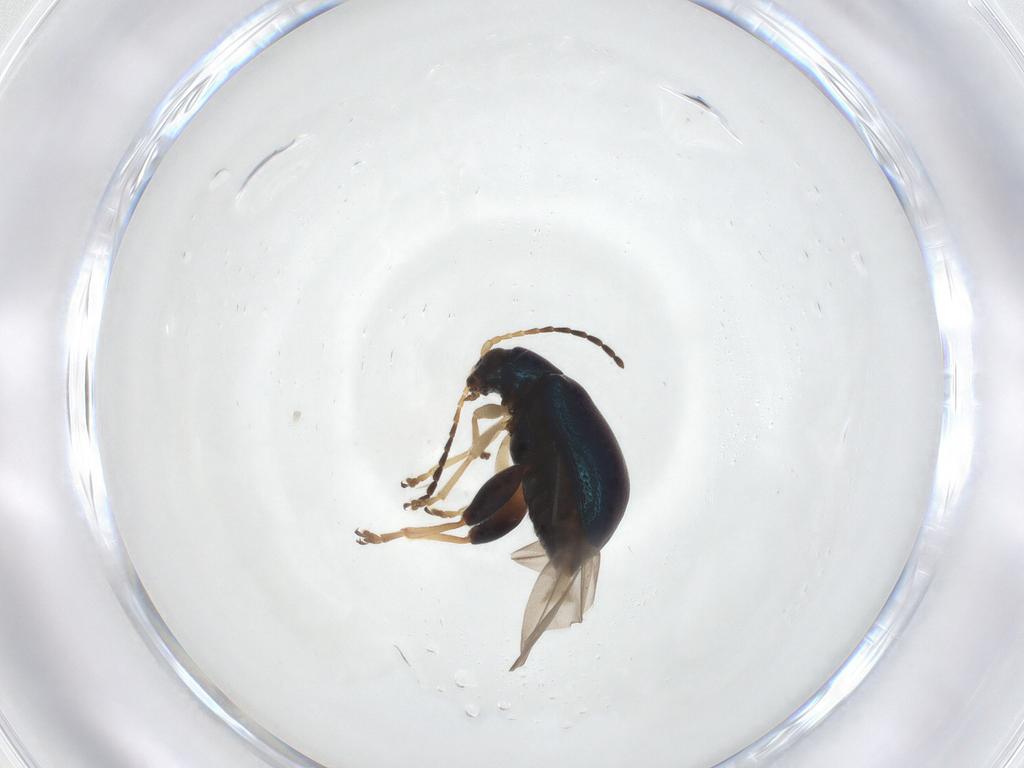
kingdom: Animalia
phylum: Arthropoda
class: Insecta
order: Coleoptera
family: Chrysomelidae
